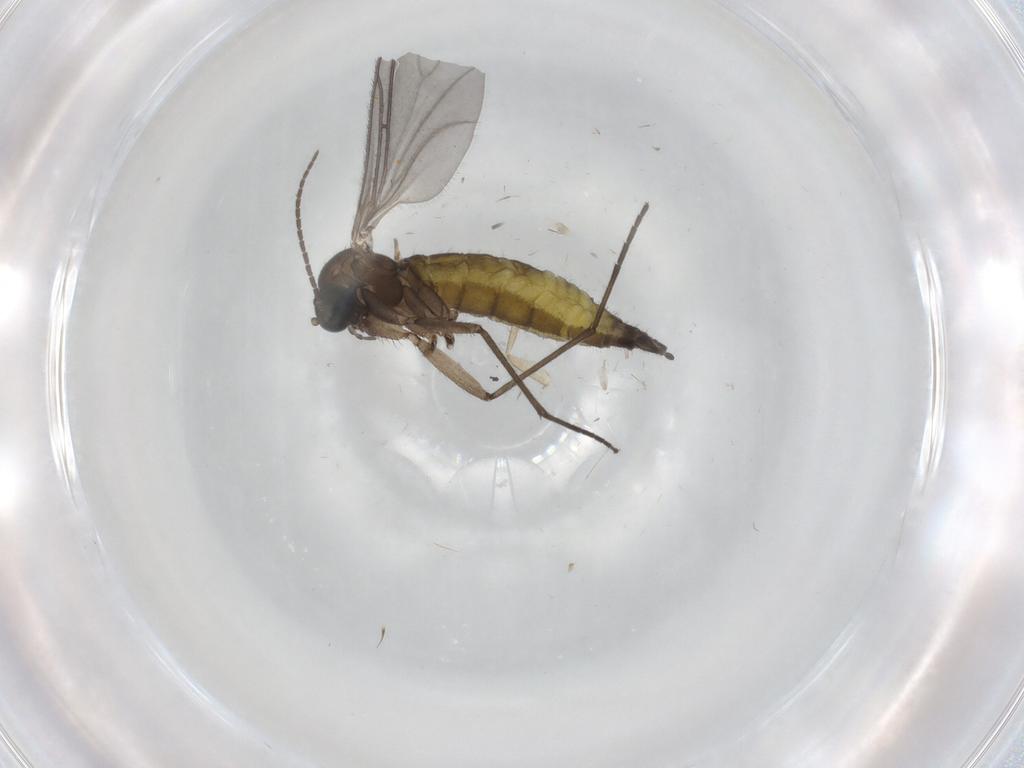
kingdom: Animalia
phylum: Arthropoda
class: Insecta
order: Diptera
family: Sciaridae
